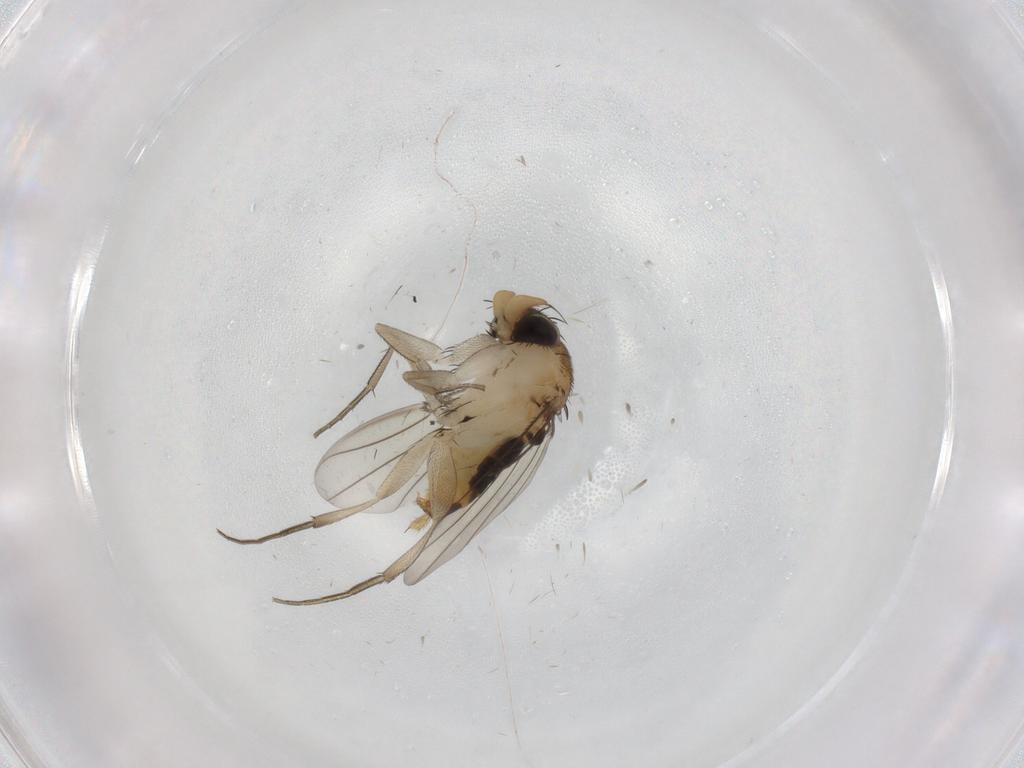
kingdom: Animalia
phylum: Arthropoda
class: Insecta
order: Diptera
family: Phoridae
